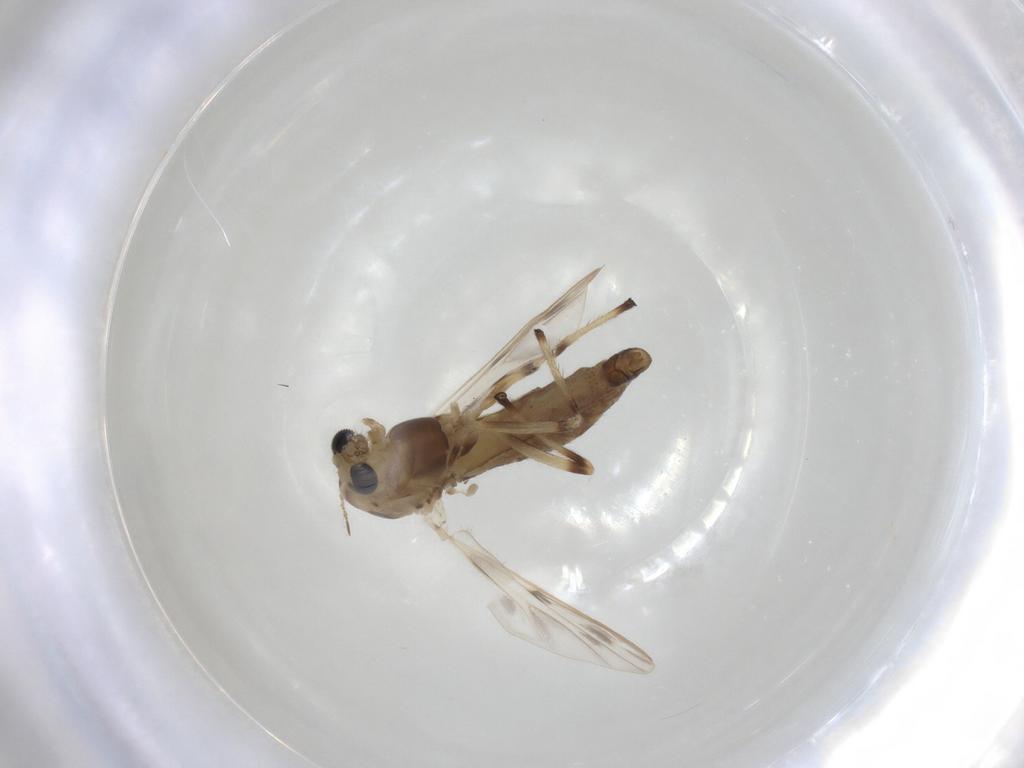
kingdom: Animalia
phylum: Arthropoda
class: Insecta
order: Diptera
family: Chironomidae
